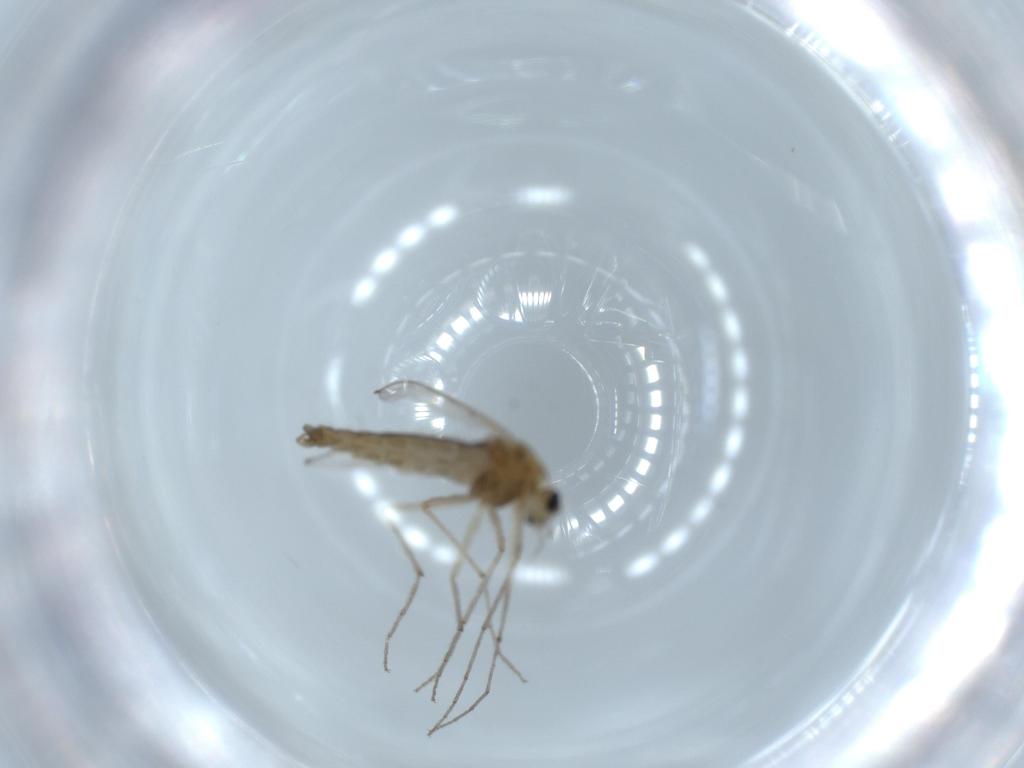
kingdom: Animalia
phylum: Arthropoda
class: Insecta
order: Diptera
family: Chironomidae
